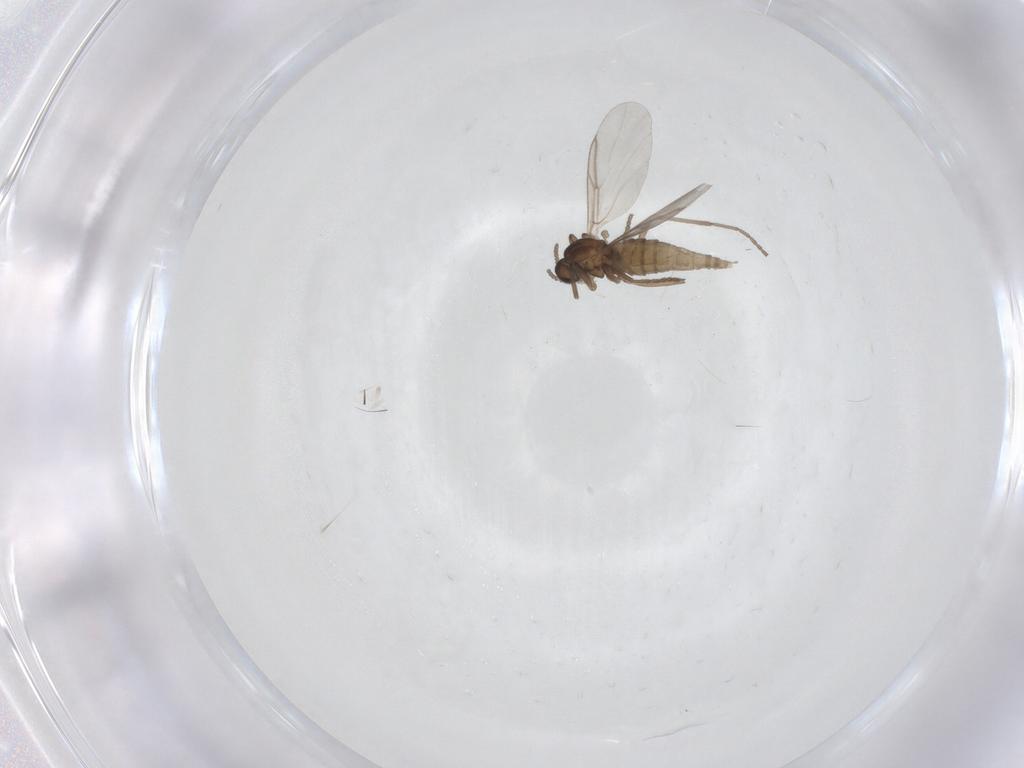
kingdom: Animalia
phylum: Arthropoda
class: Insecta
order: Diptera
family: Cecidomyiidae
